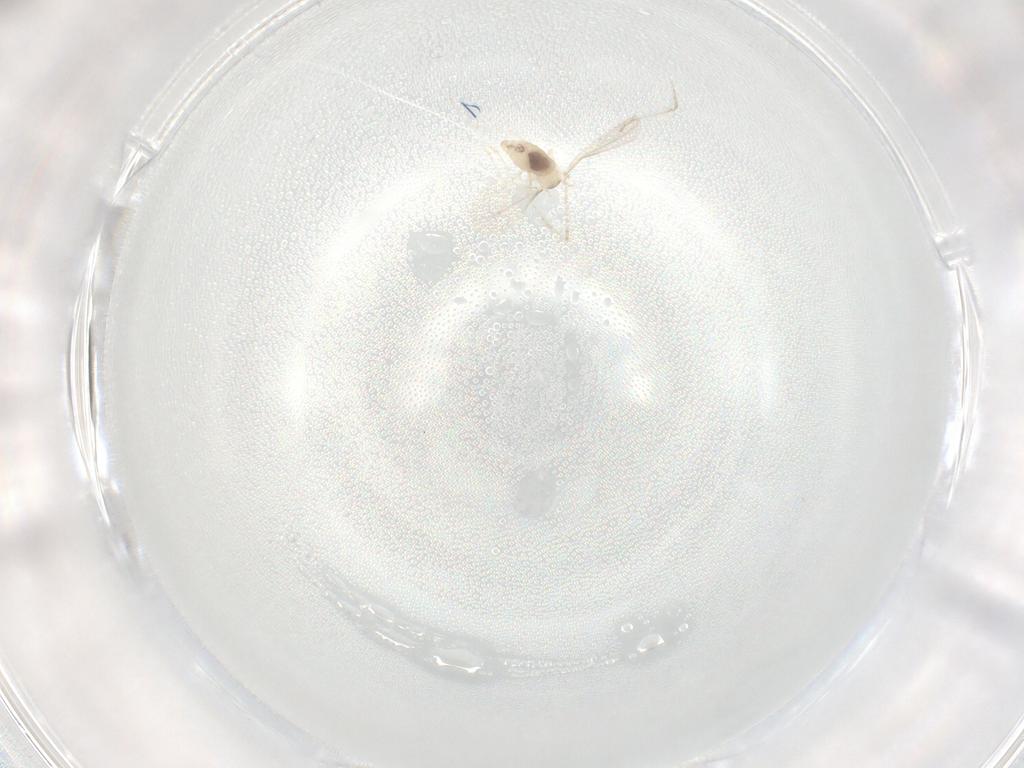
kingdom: Animalia
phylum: Arthropoda
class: Insecta
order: Diptera
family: Cecidomyiidae
